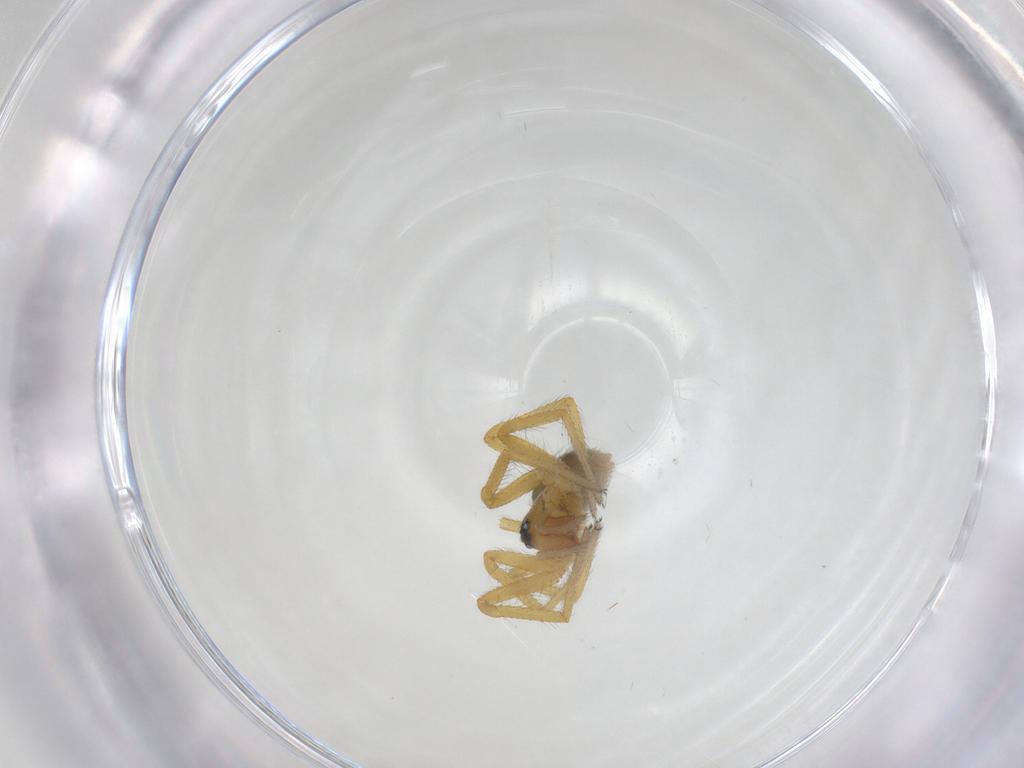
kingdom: Animalia
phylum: Arthropoda
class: Arachnida
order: Araneae
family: Linyphiidae
